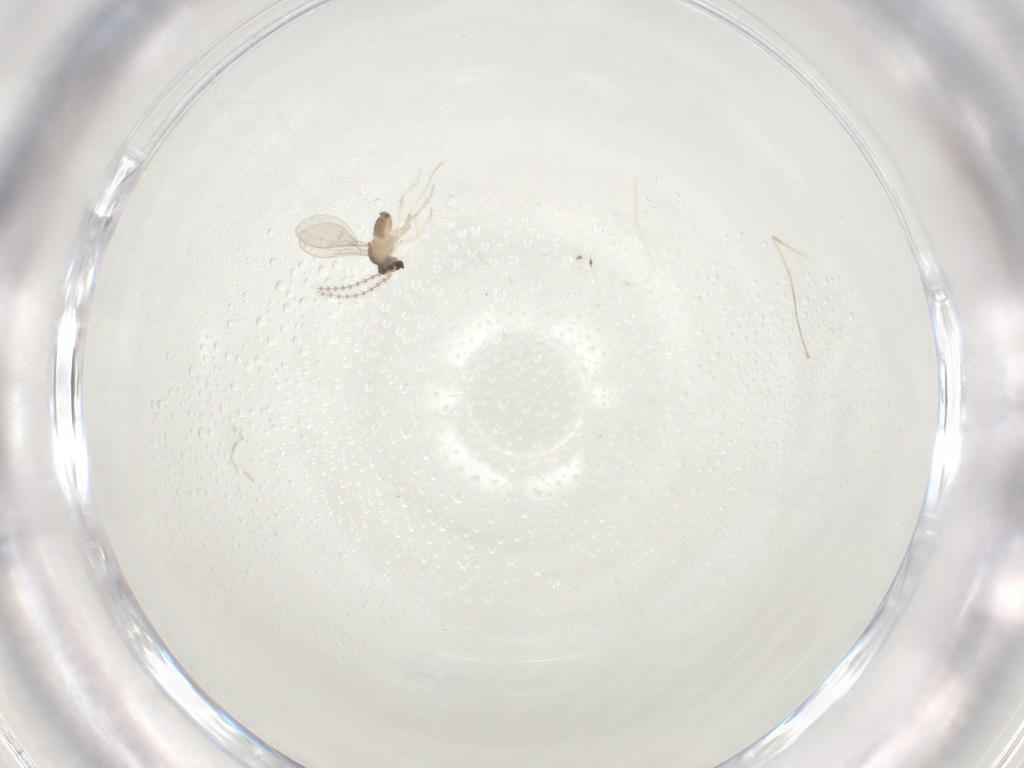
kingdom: Animalia
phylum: Arthropoda
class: Insecta
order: Diptera
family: Cecidomyiidae
